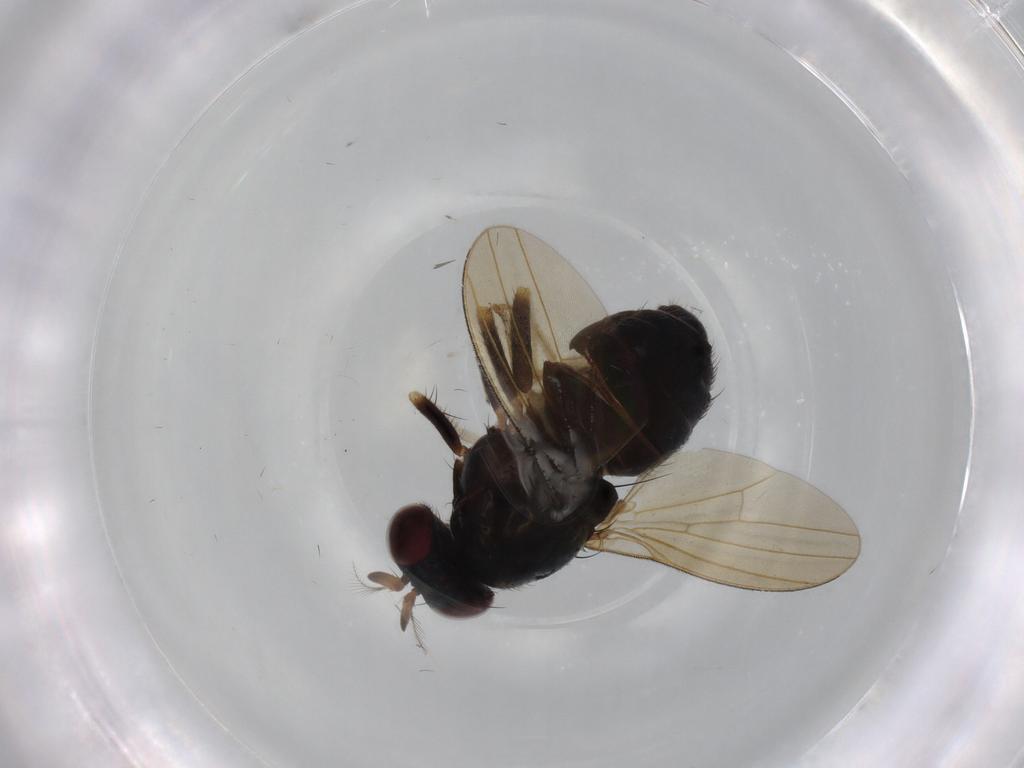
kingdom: Animalia
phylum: Arthropoda
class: Insecta
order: Diptera
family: Lauxaniidae
